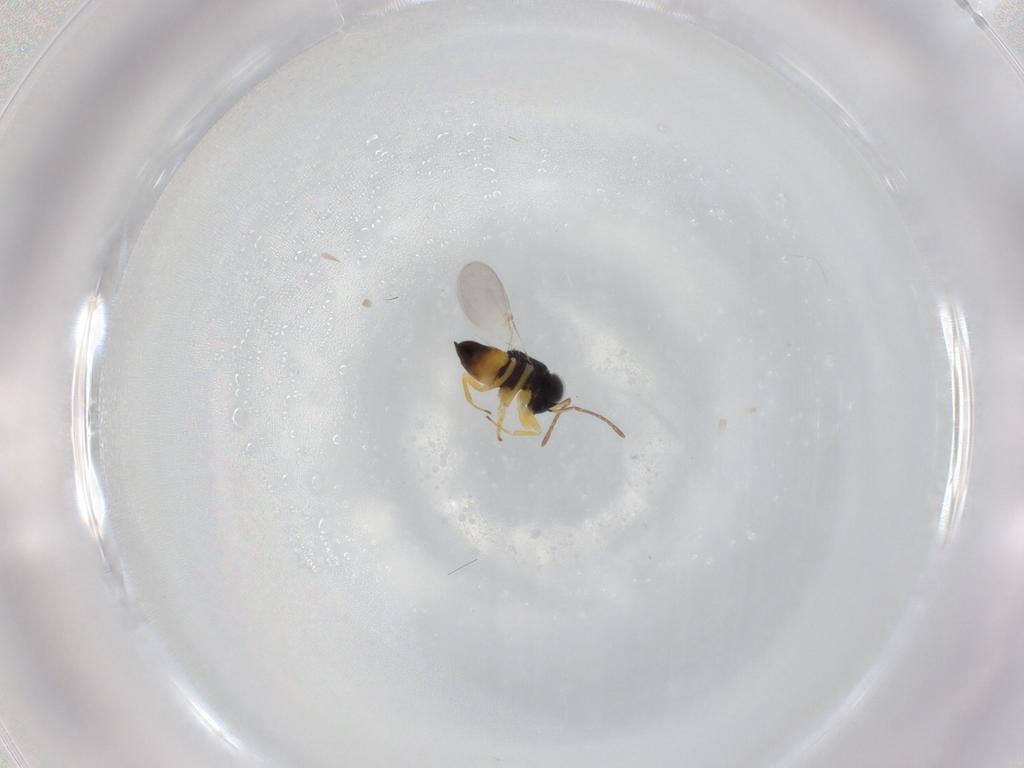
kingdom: Animalia
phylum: Arthropoda
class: Insecta
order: Hymenoptera
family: Encyrtidae
